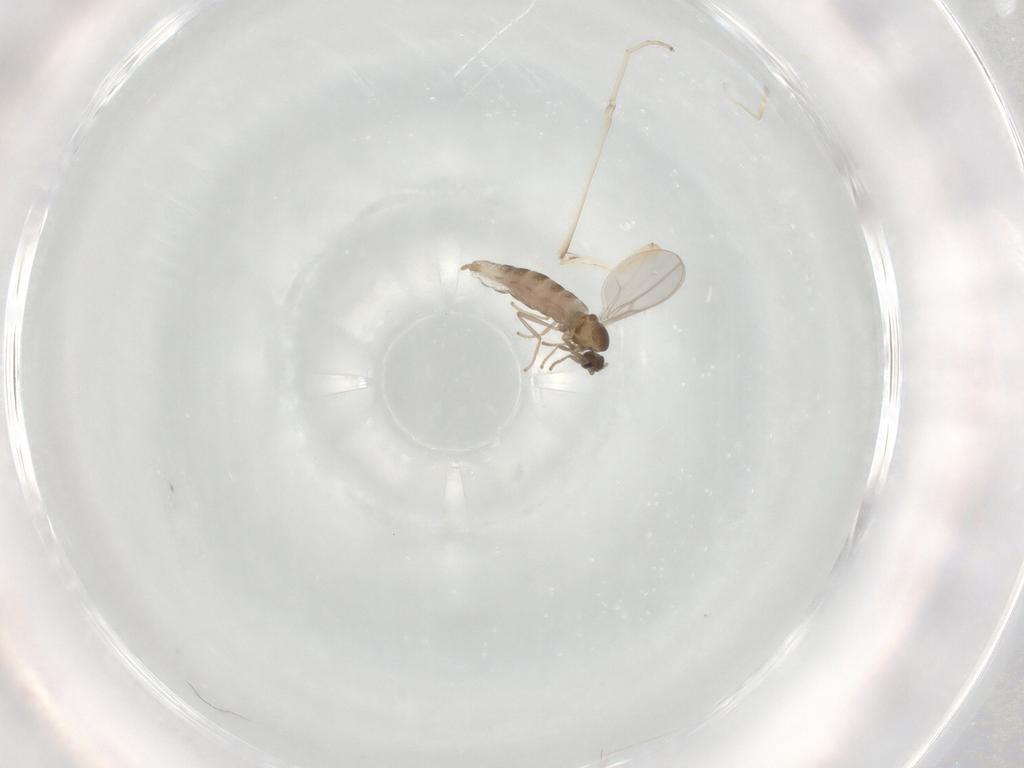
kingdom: Animalia
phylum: Arthropoda
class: Insecta
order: Diptera
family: Cecidomyiidae
